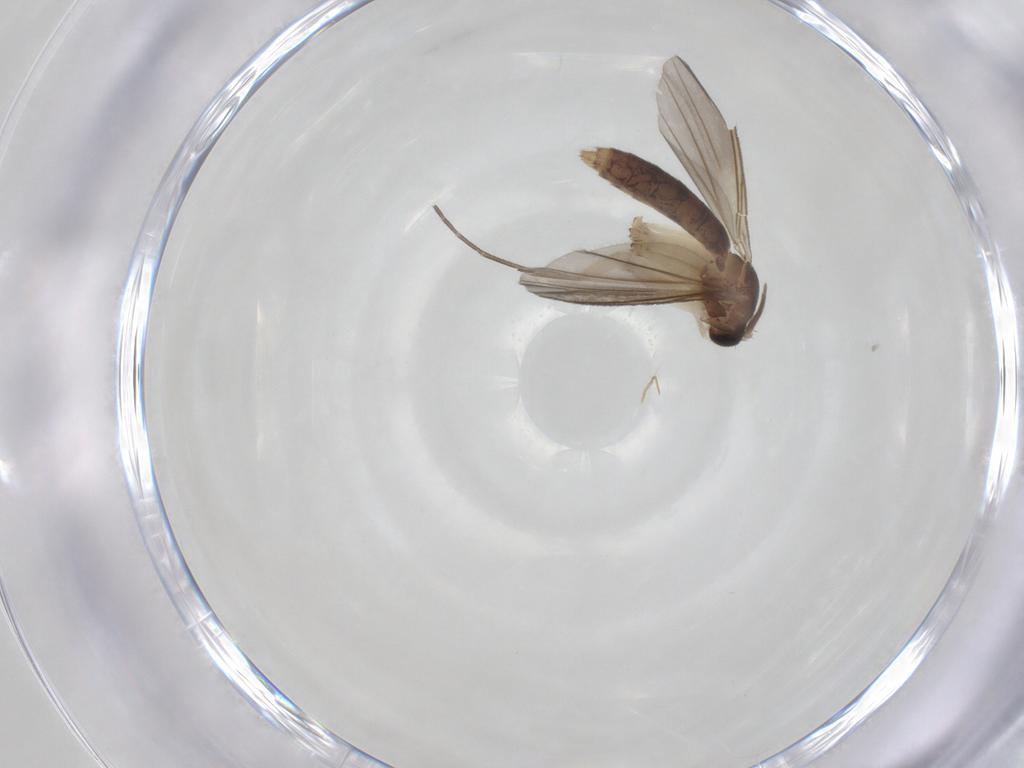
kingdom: Animalia
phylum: Arthropoda
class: Insecta
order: Diptera
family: Mycetophilidae
